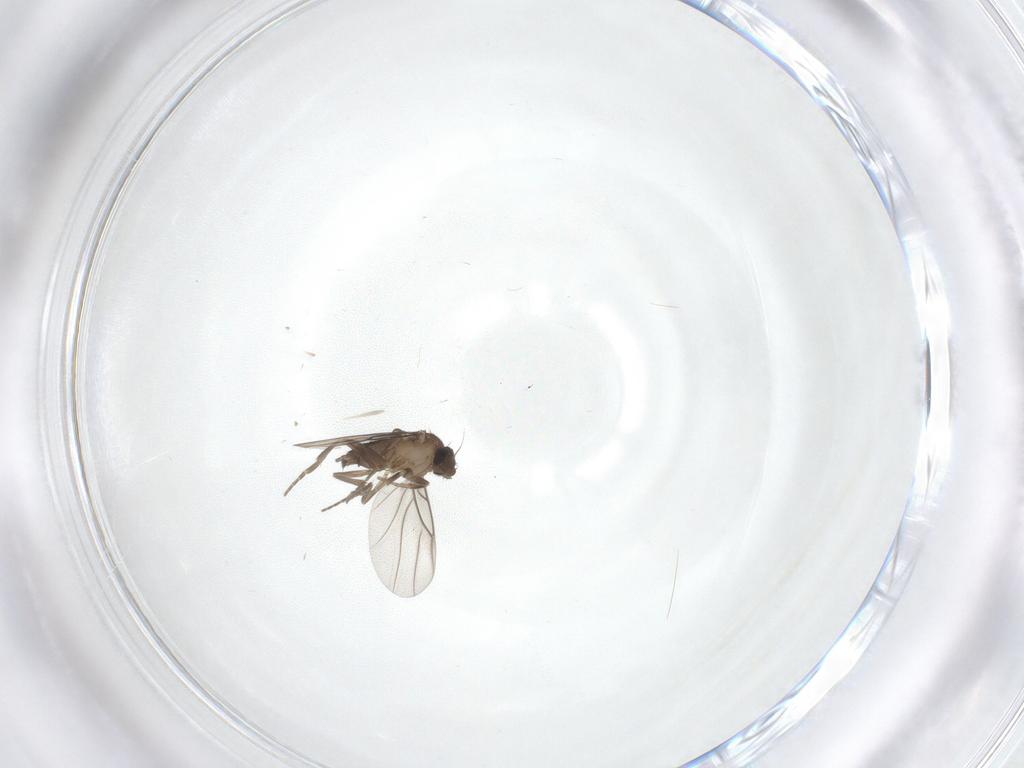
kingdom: Animalia
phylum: Arthropoda
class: Insecta
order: Diptera
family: Phoridae
